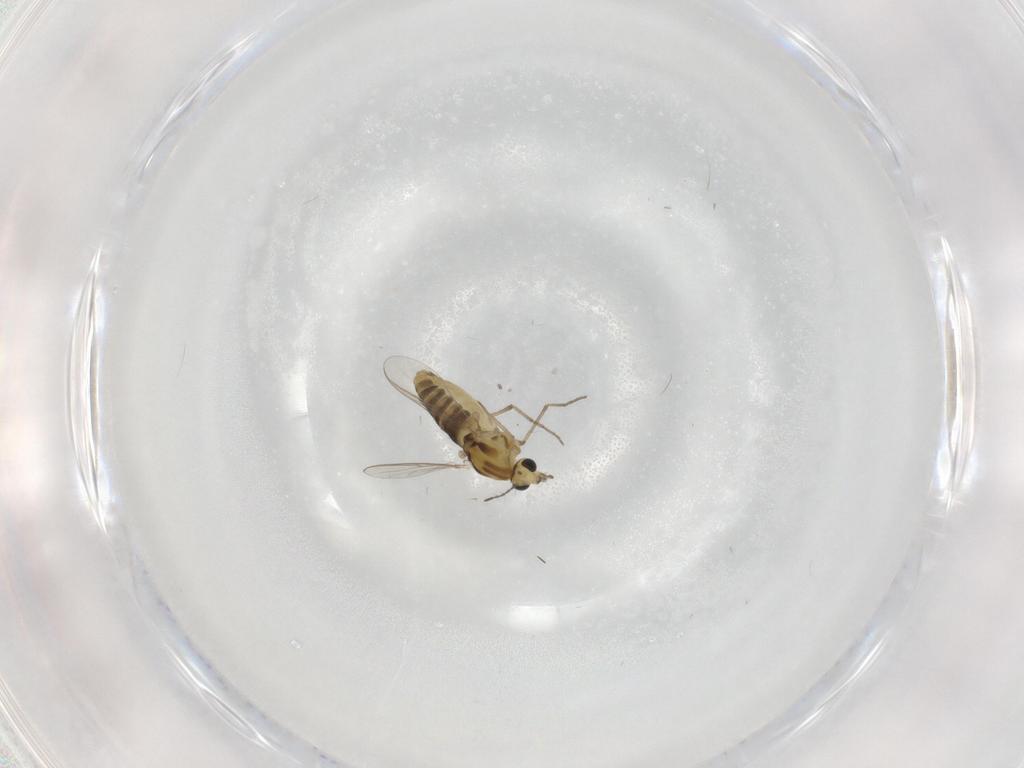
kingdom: Animalia
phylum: Arthropoda
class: Insecta
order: Diptera
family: Chironomidae
